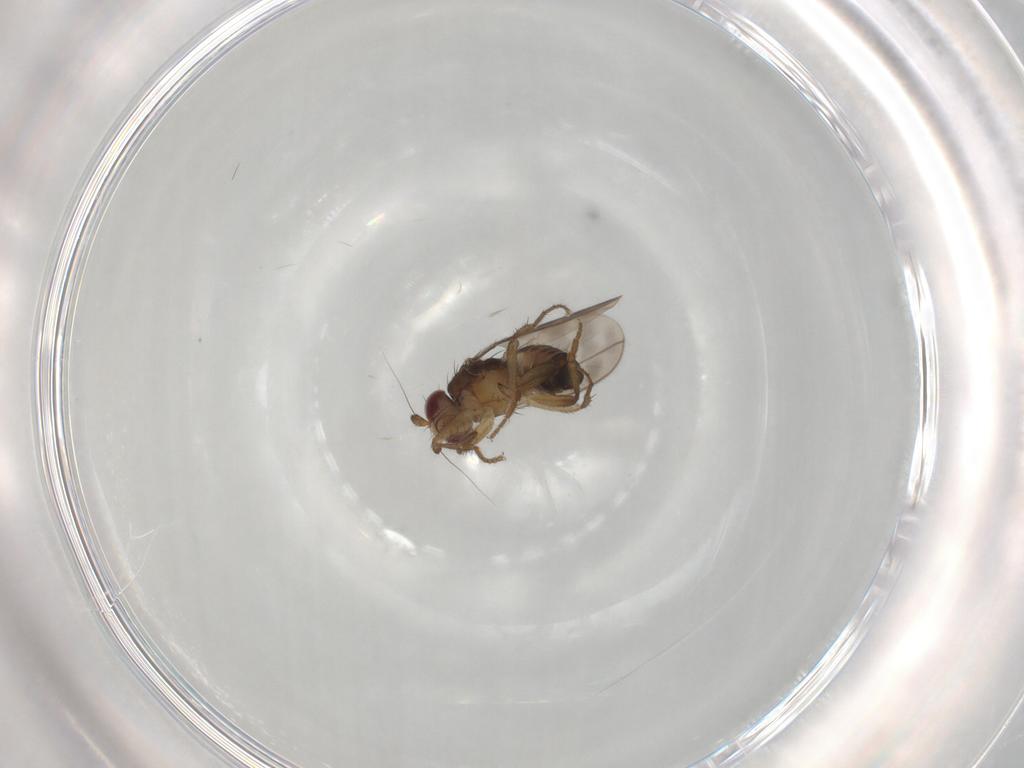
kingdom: Animalia
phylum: Arthropoda
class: Insecta
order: Diptera
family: Sphaeroceridae
